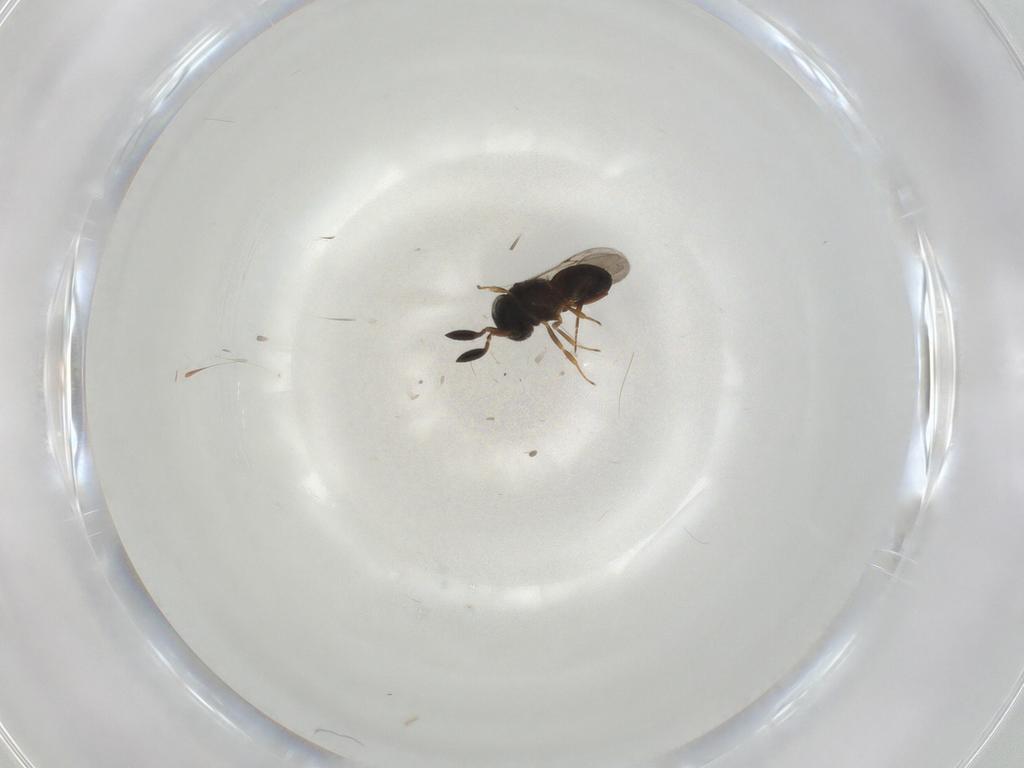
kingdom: Animalia
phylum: Arthropoda
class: Insecta
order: Hymenoptera
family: Scelionidae
